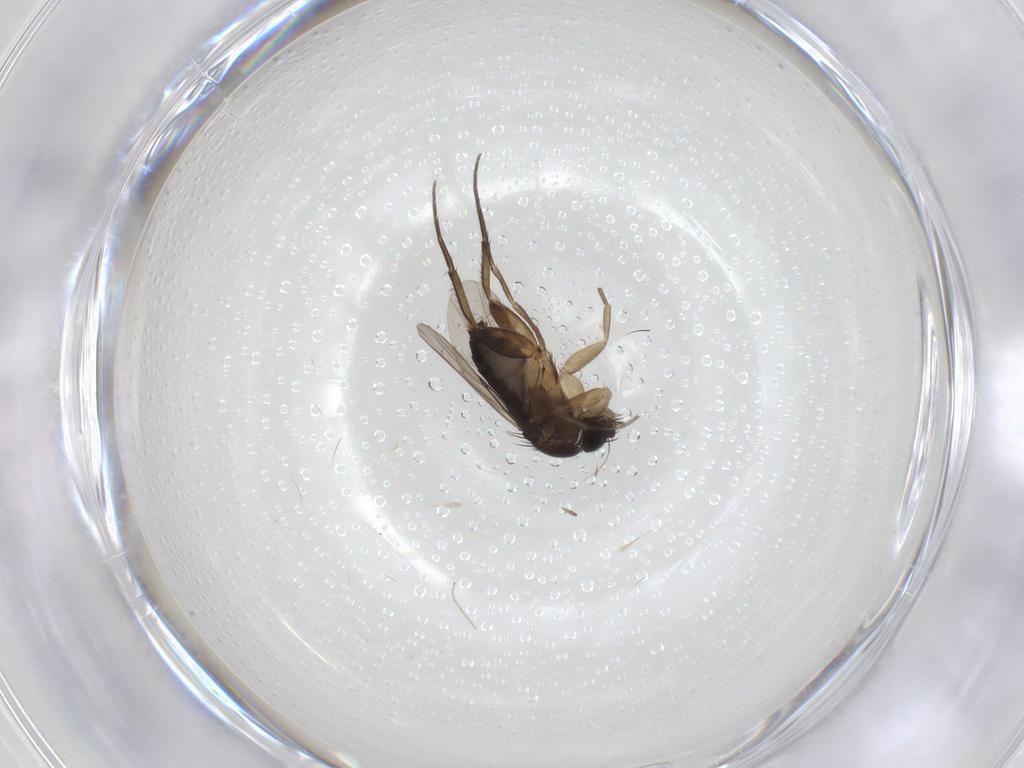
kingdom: Animalia
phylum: Arthropoda
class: Insecta
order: Diptera
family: Phoridae
